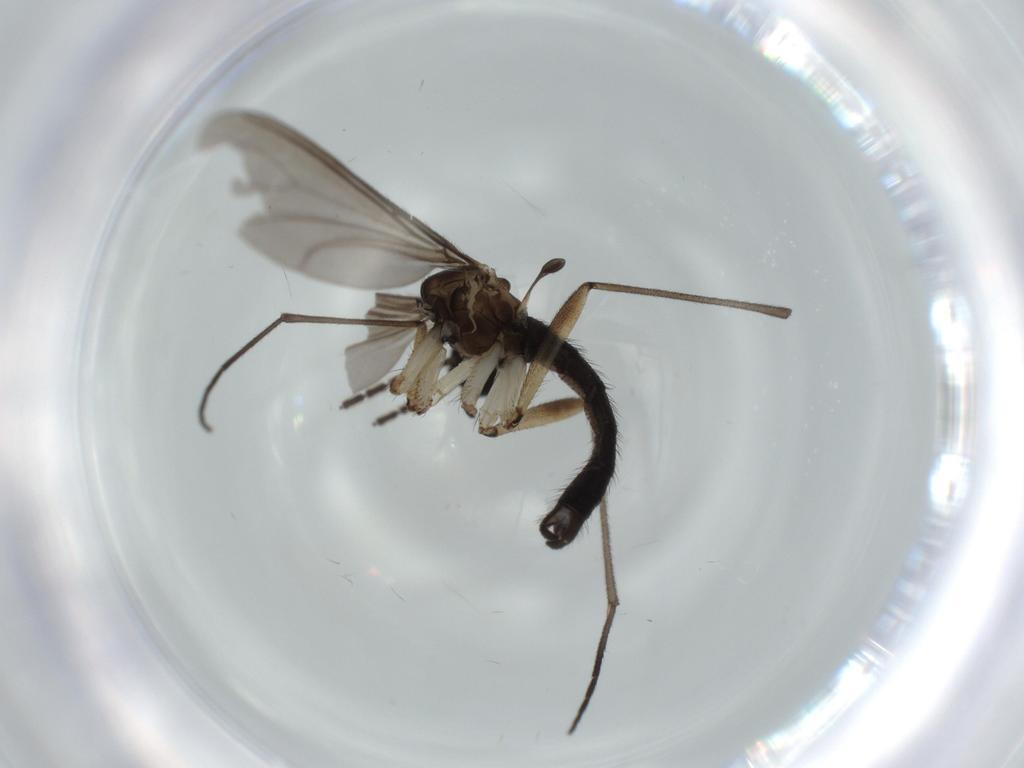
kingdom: Animalia
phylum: Arthropoda
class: Insecta
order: Diptera
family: Sciaridae
